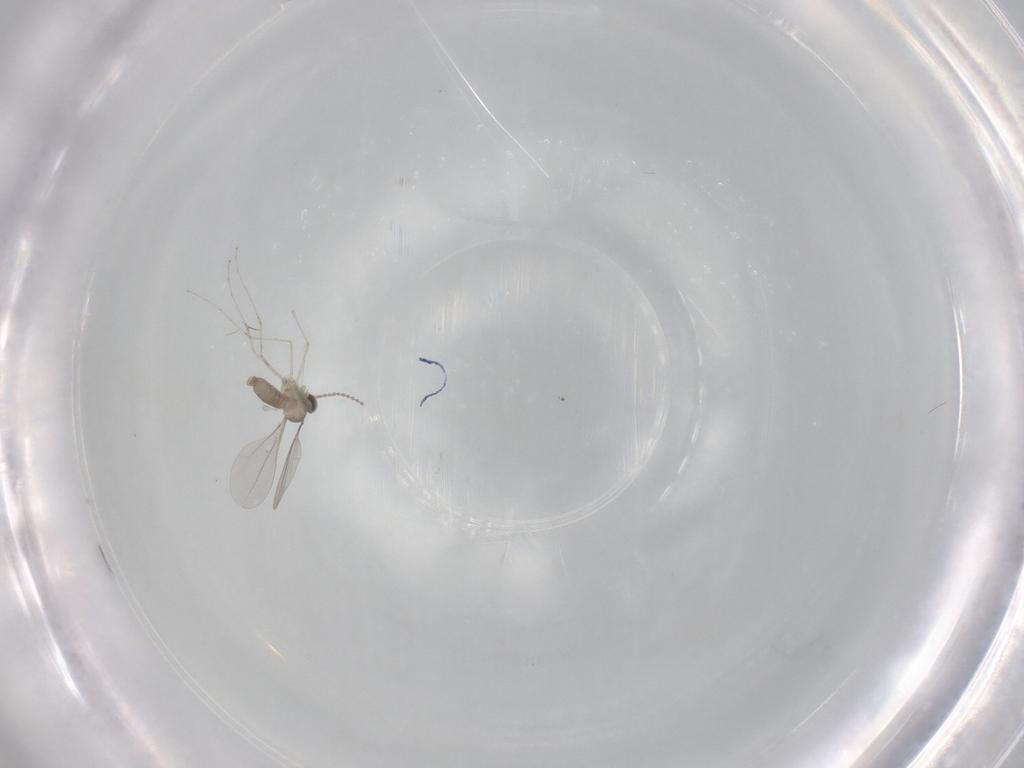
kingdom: Animalia
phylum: Arthropoda
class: Insecta
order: Diptera
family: Cecidomyiidae
